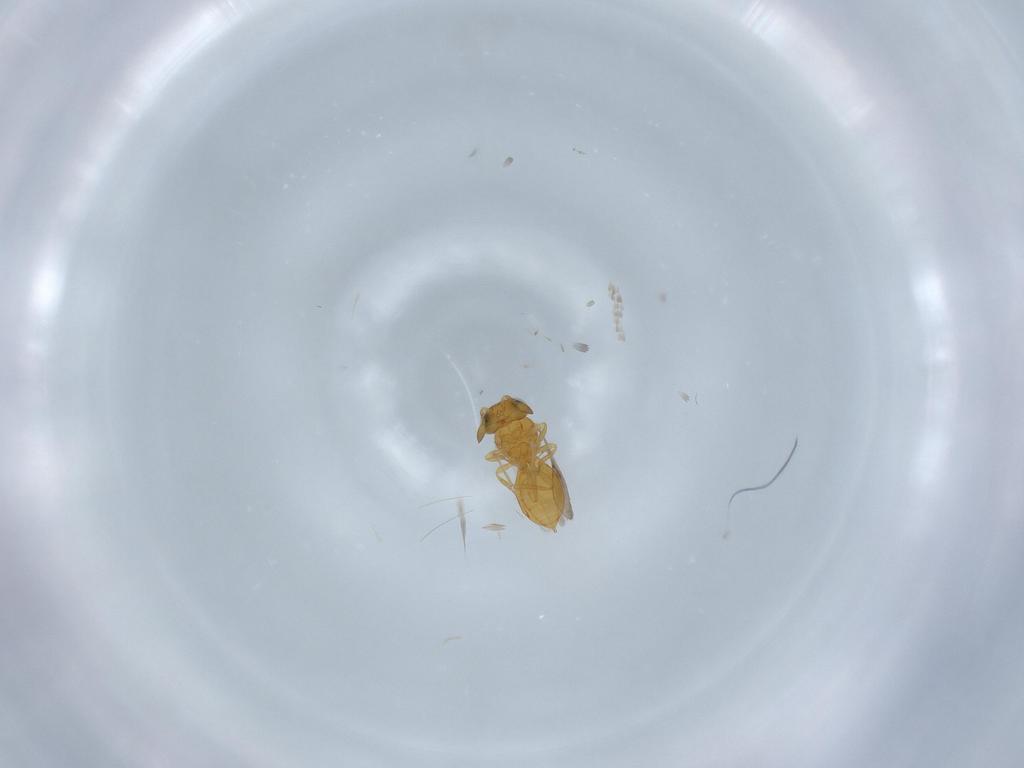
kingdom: Animalia
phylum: Arthropoda
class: Insecta
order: Hymenoptera
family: Scelionidae
